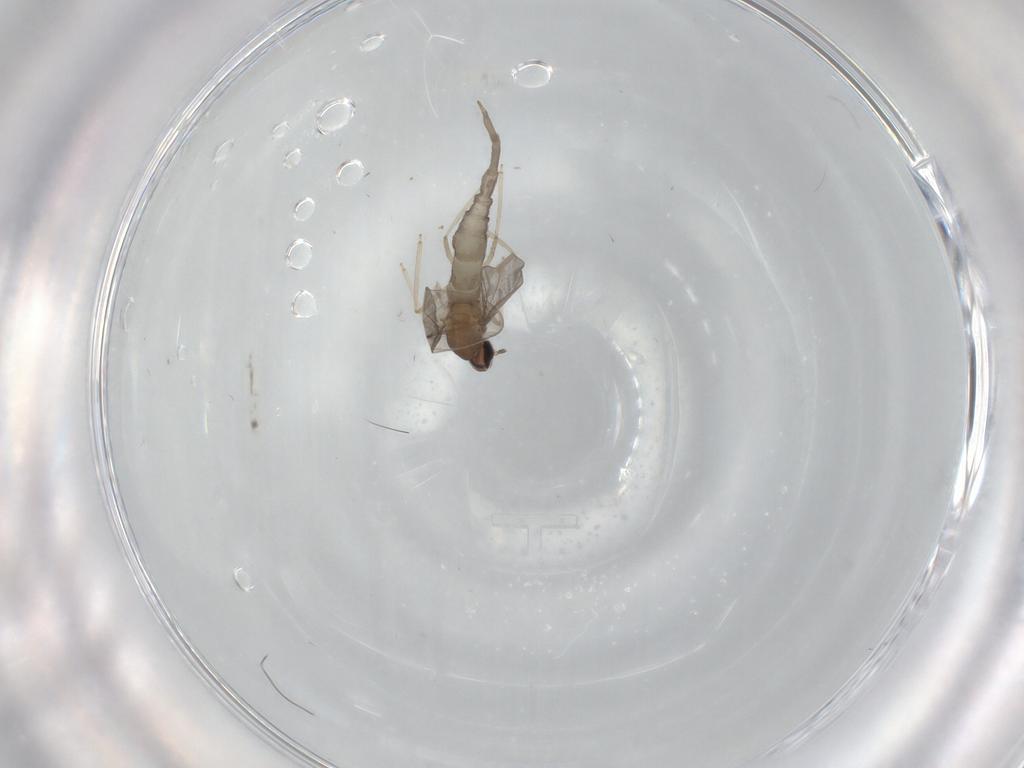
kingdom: Animalia
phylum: Arthropoda
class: Insecta
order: Diptera
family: Cecidomyiidae
